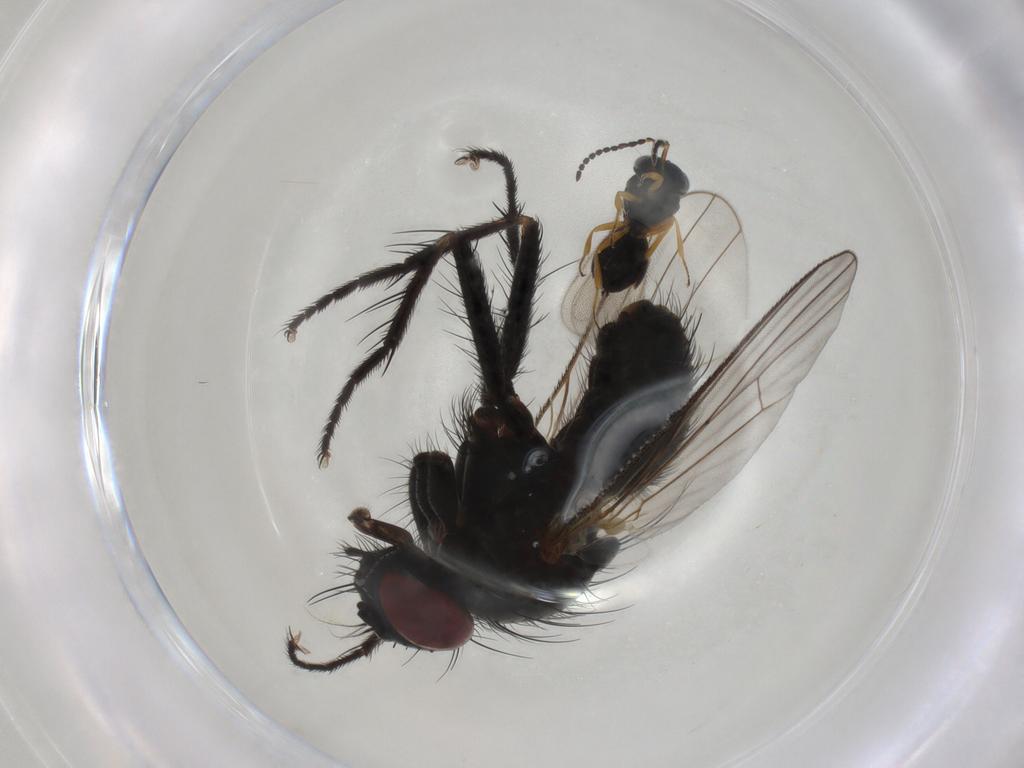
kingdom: Animalia
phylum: Arthropoda
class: Insecta
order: Diptera
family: Muscidae
